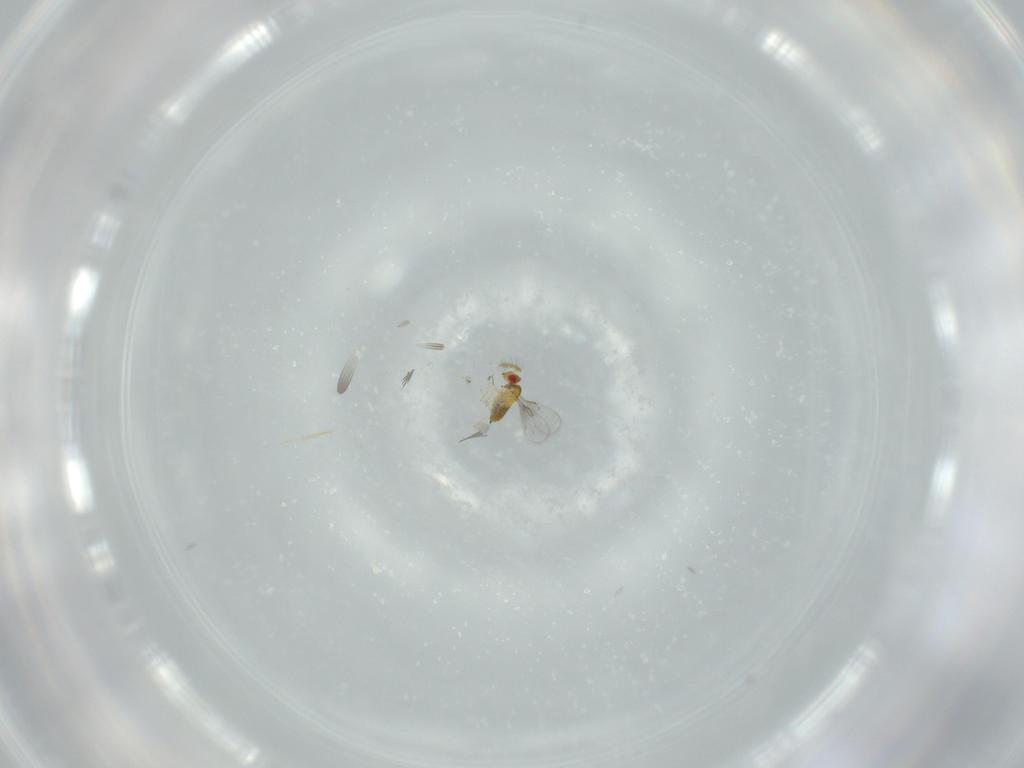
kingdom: Animalia
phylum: Arthropoda
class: Insecta
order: Hymenoptera
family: Trichogrammatidae
